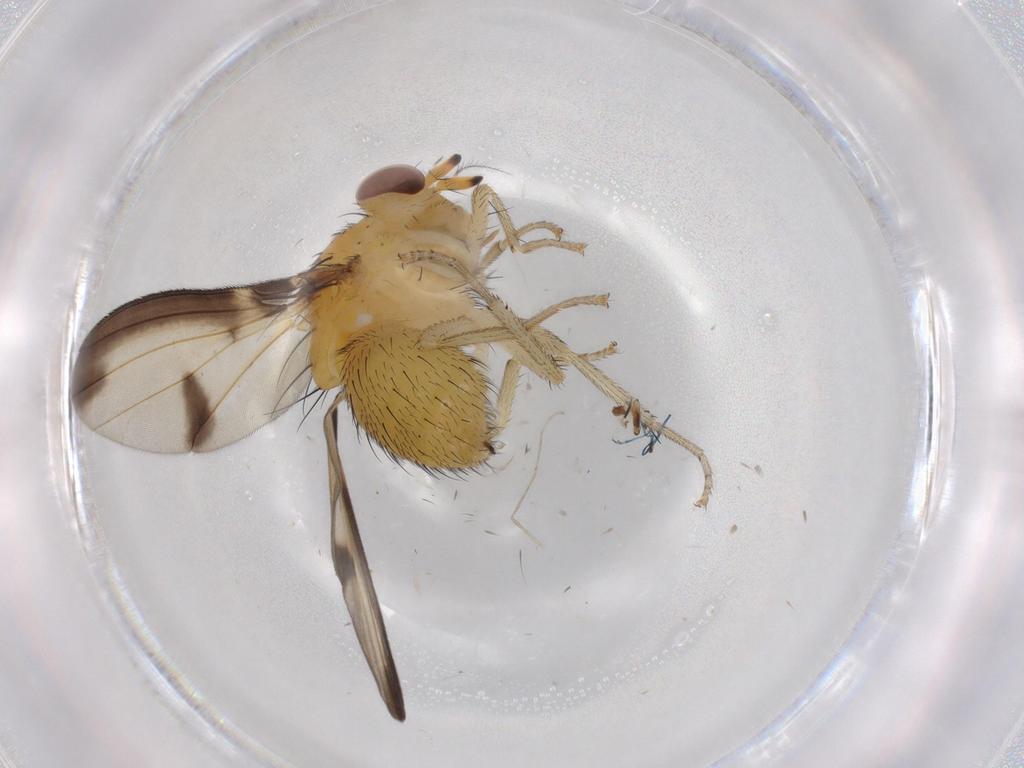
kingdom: Animalia
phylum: Arthropoda
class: Insecta
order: Diptera
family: Lauxaniidae
